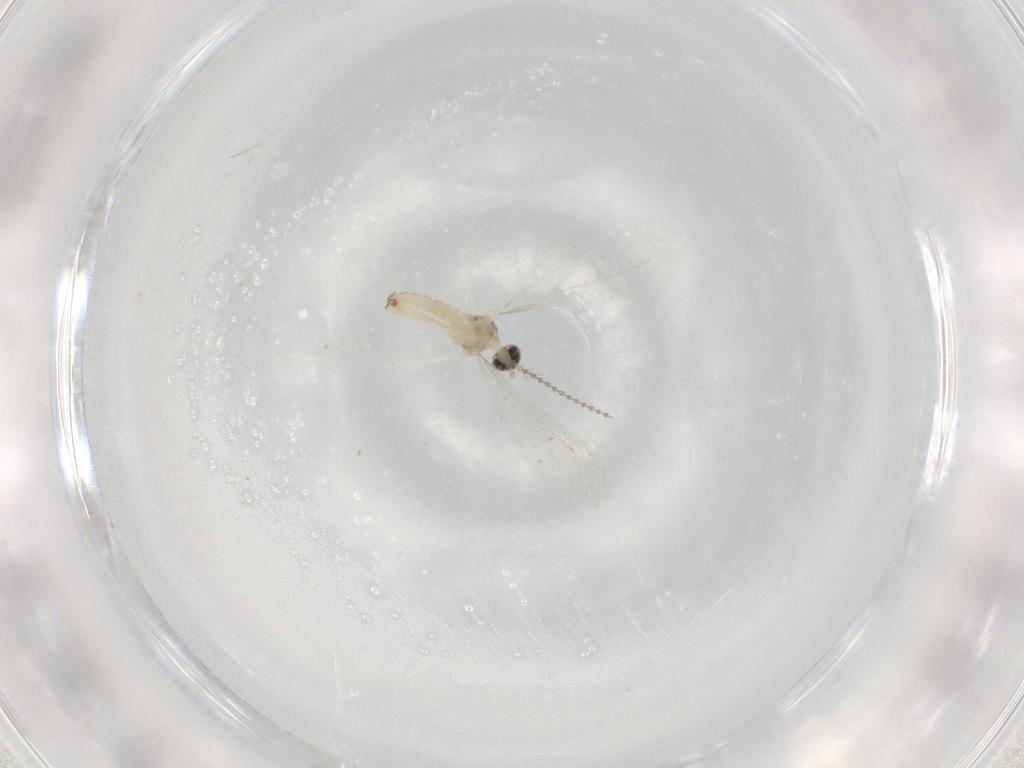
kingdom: Animalia
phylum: Arthropoda
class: Insecta
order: Diptera
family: Cecidomyiidae
